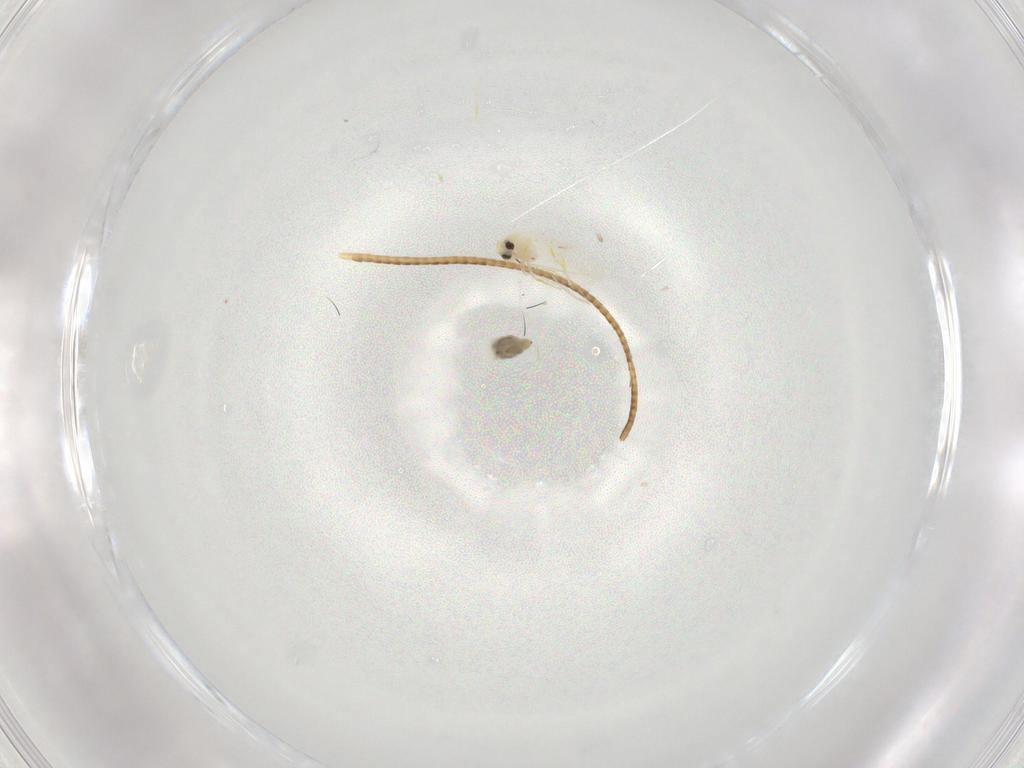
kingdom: Animalia
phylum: Arthropoda
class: Insecta
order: Hemiptera
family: Aleyrodidae
